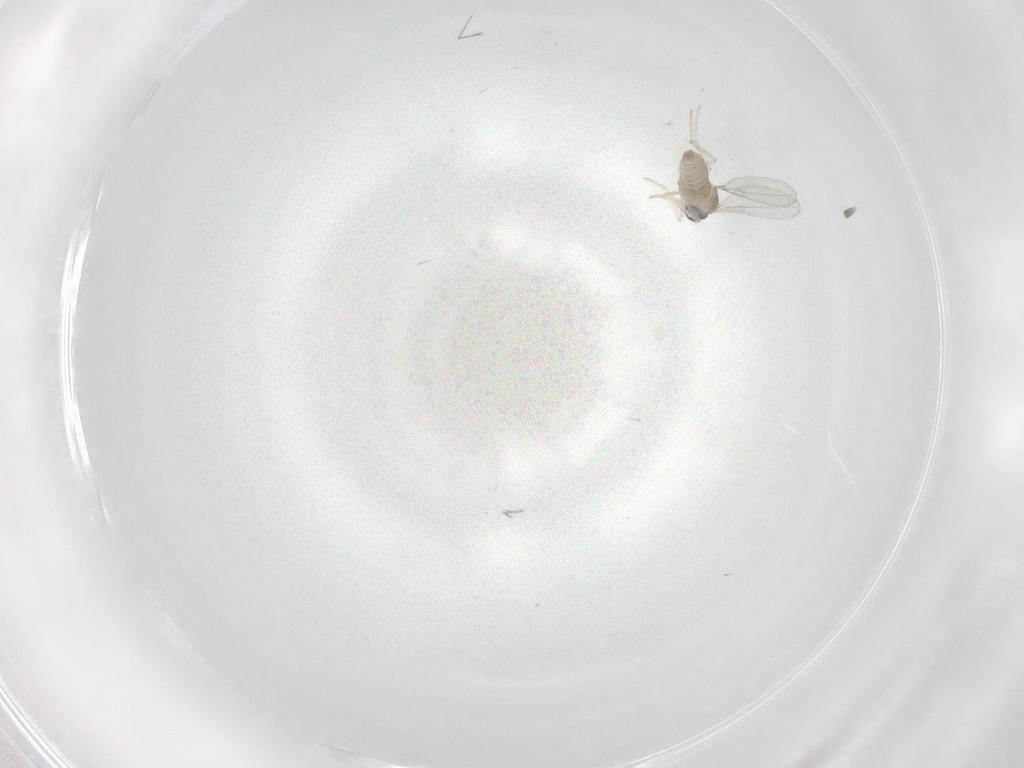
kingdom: Animalia
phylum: Arthropoda
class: Insecta
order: Diptera
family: Cecidomyiidae
